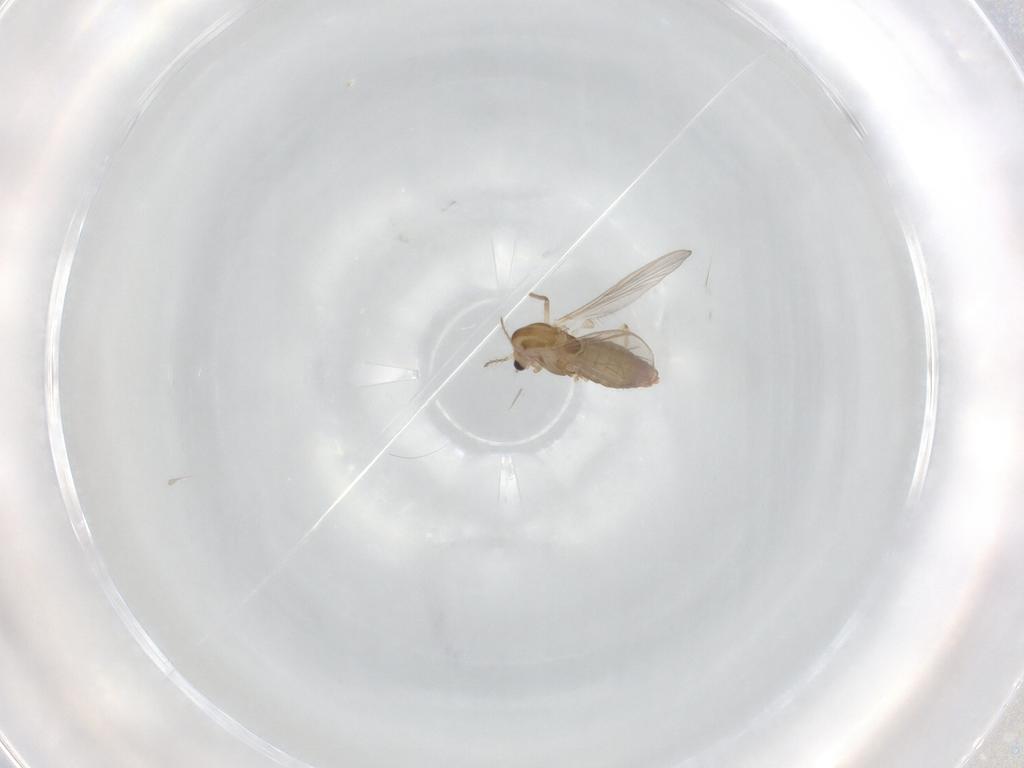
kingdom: Animalia
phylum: Arthropoda
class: Insecta
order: Diptera
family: Chironomidae
